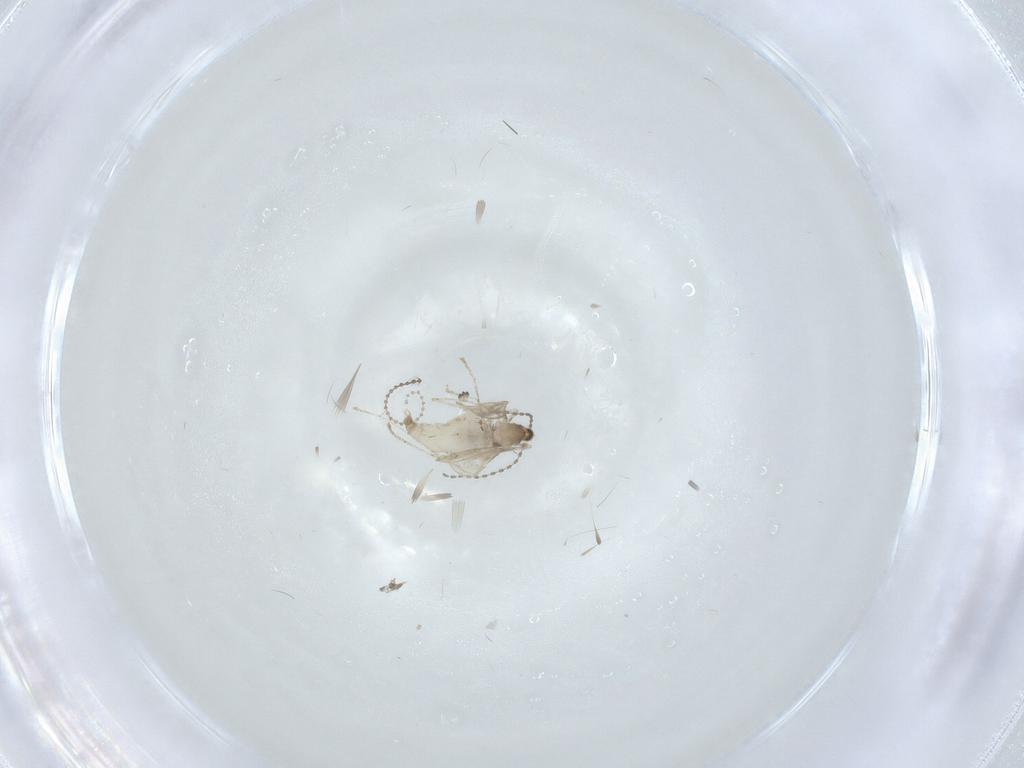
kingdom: Animalia
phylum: Arthropoda
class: Insecta
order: Diptera
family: Cecidomyiidae
